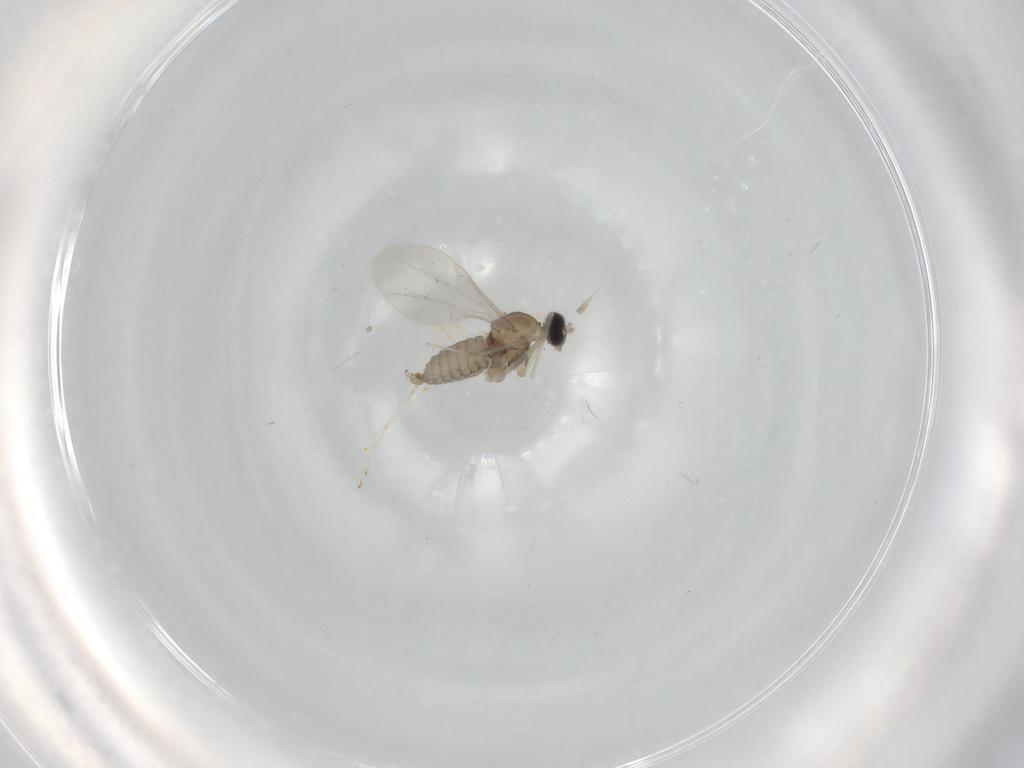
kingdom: Animalia
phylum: Arthropoda
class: Insecta
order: Diptera
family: Cecidomyiidae
